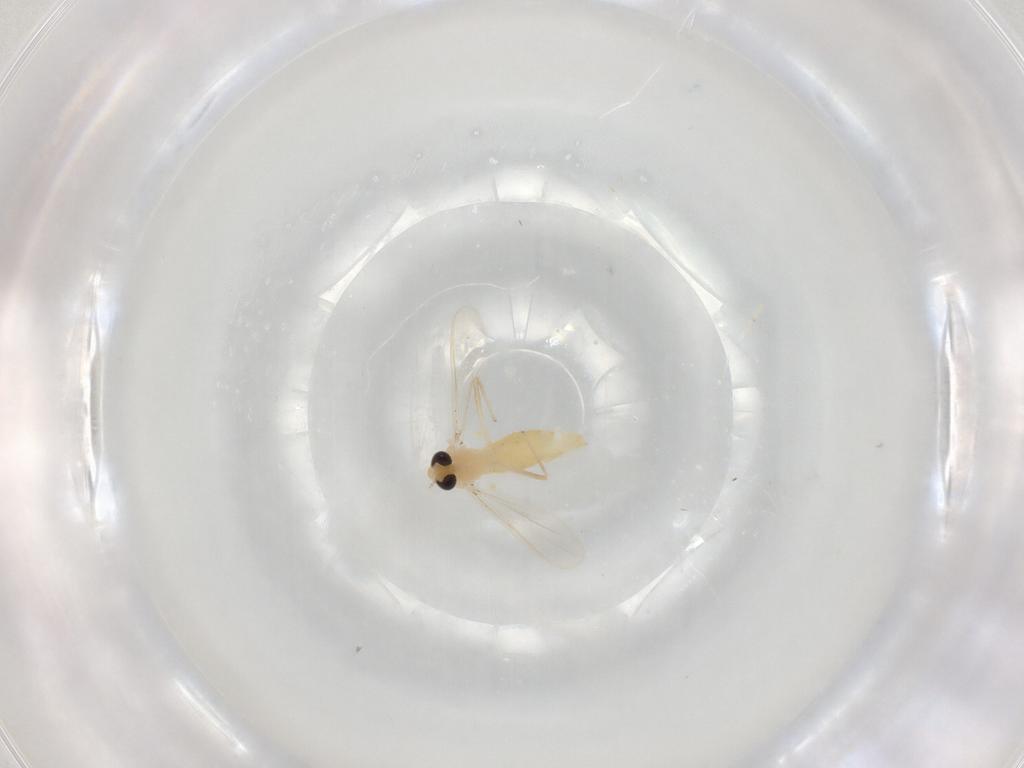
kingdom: Animalia
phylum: Arthropoda
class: Insecta
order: Diptera
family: Chironomidae
